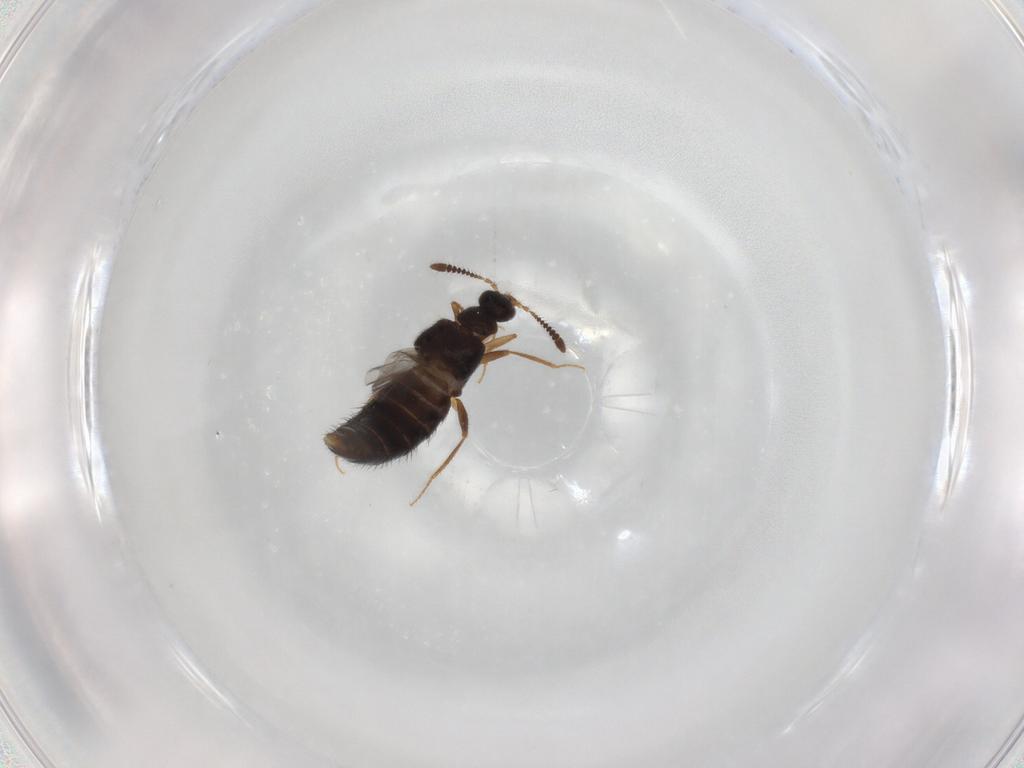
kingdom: Animalia
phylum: Arthropoda
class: Insecta
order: Coleoptera
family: Staphylinidae
